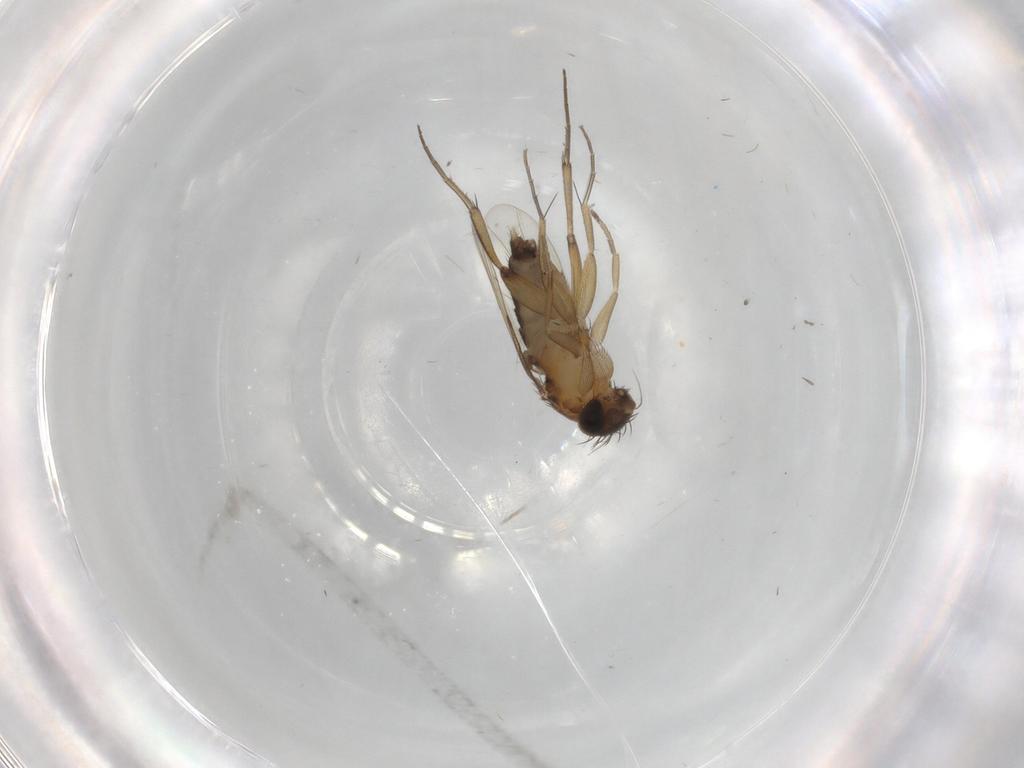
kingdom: Animalia
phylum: Arthropoda
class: Insecta
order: Diptera
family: Phoridae
